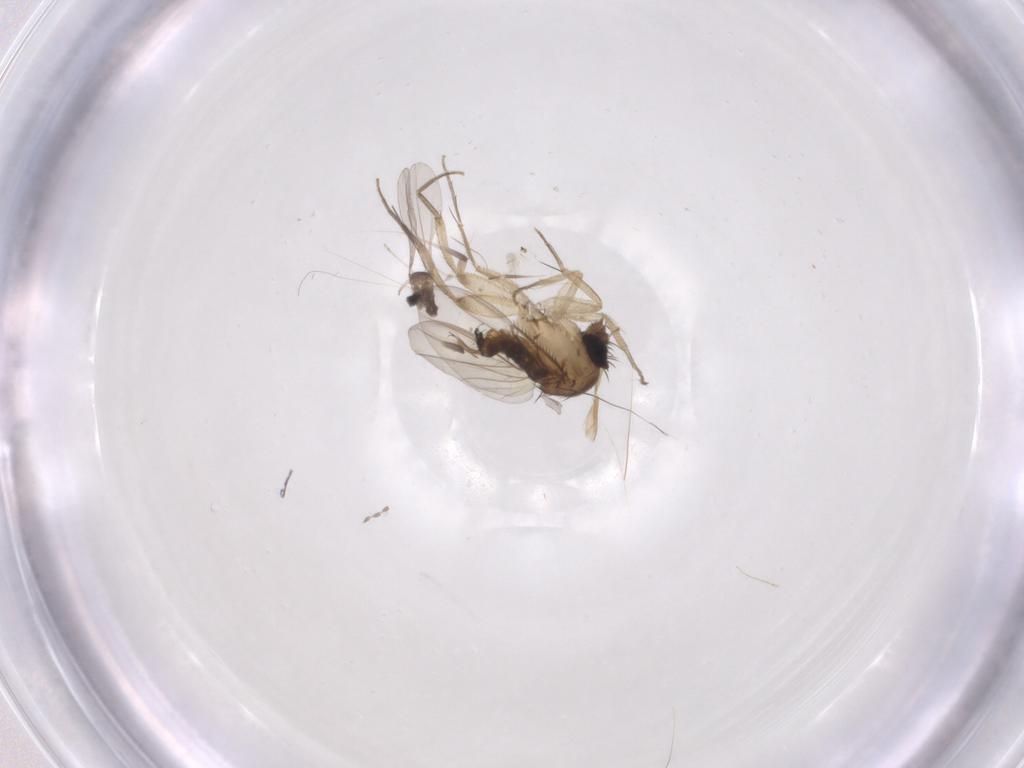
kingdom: Animalia
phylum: Arthropoda
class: Insecta
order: Diptera
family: Phoridae
